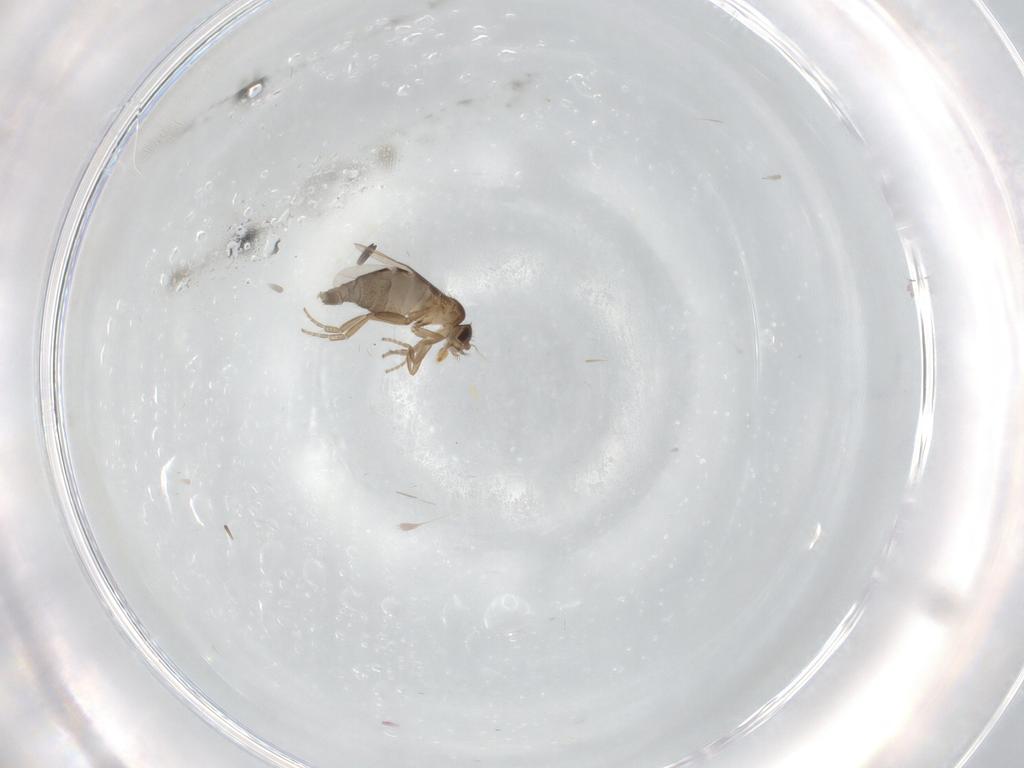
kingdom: Animalia
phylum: Arthropoda
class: Insecta
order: Diptera
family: Phoridae
